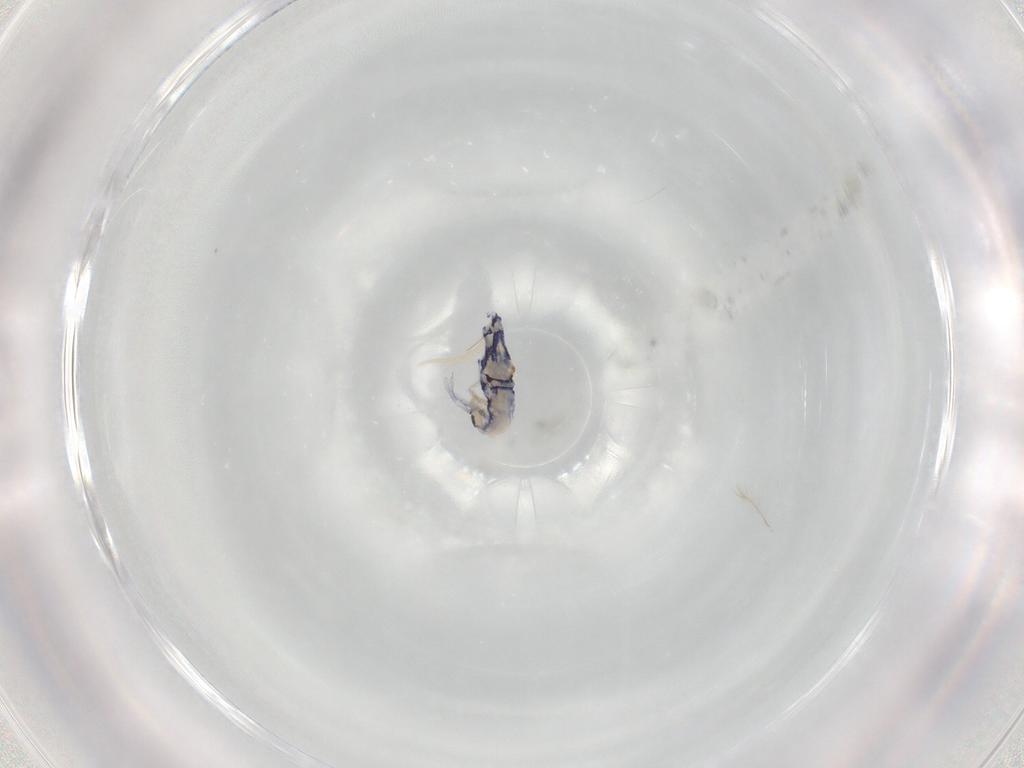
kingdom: Animalia
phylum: Arthropoda
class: Collembola
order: Entomobryomorpha
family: Entomobryidae
